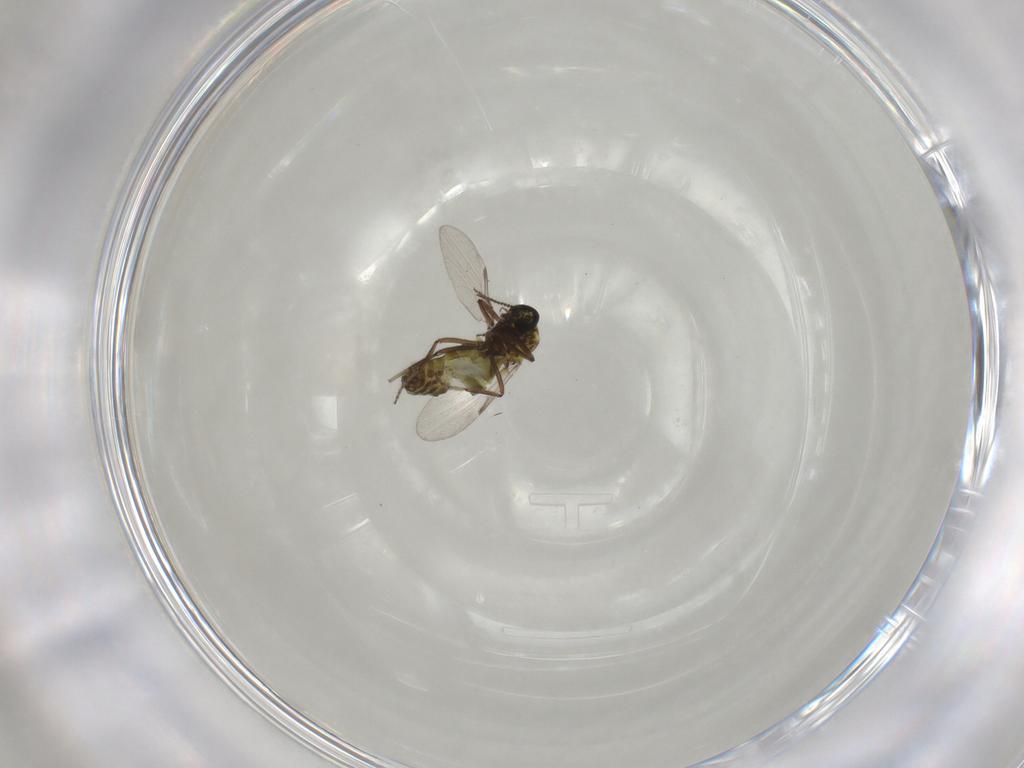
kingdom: Animalia
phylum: Arthropoda
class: Insecta
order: Diptera
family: Ceratopogonidae
